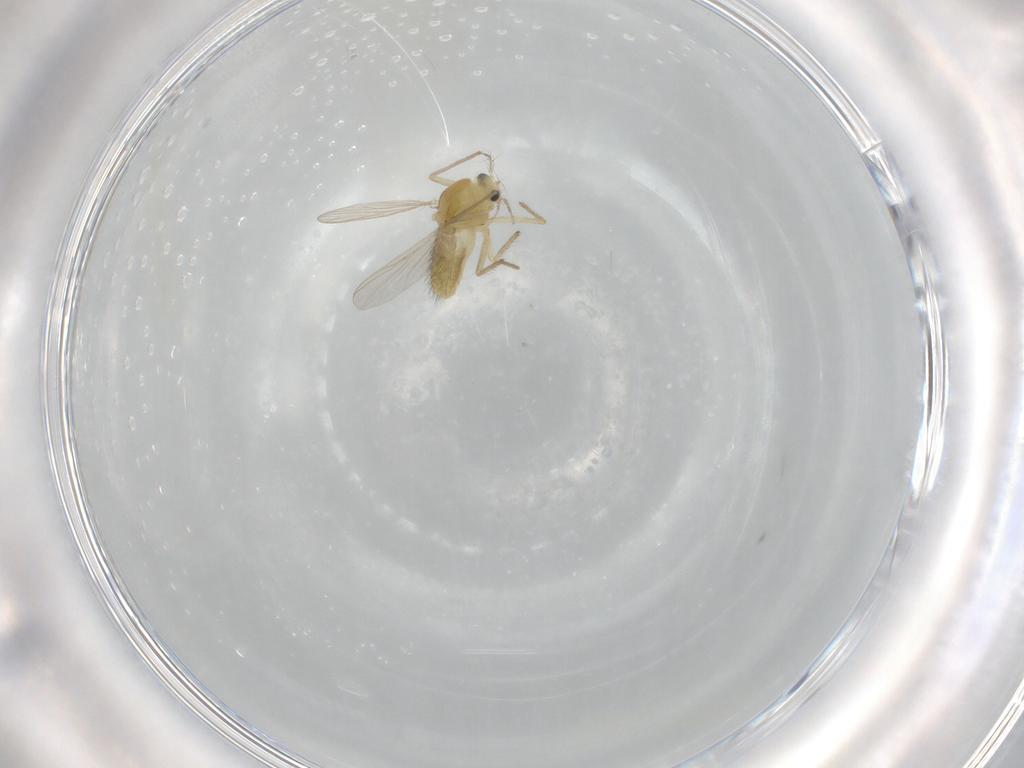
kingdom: Animalia
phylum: Arthropoda
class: Insecta
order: Diptera
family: Chironomidae
